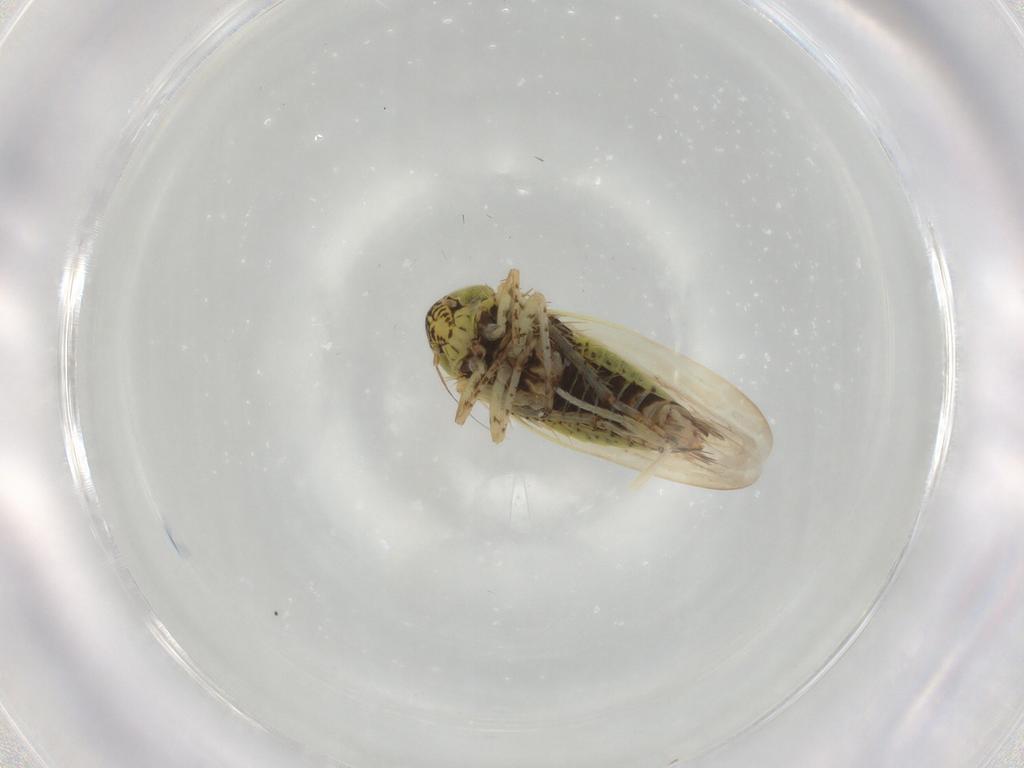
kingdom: Animalia
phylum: Arthropoda
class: Insecta
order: Hemiptera
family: Cicadellidae
